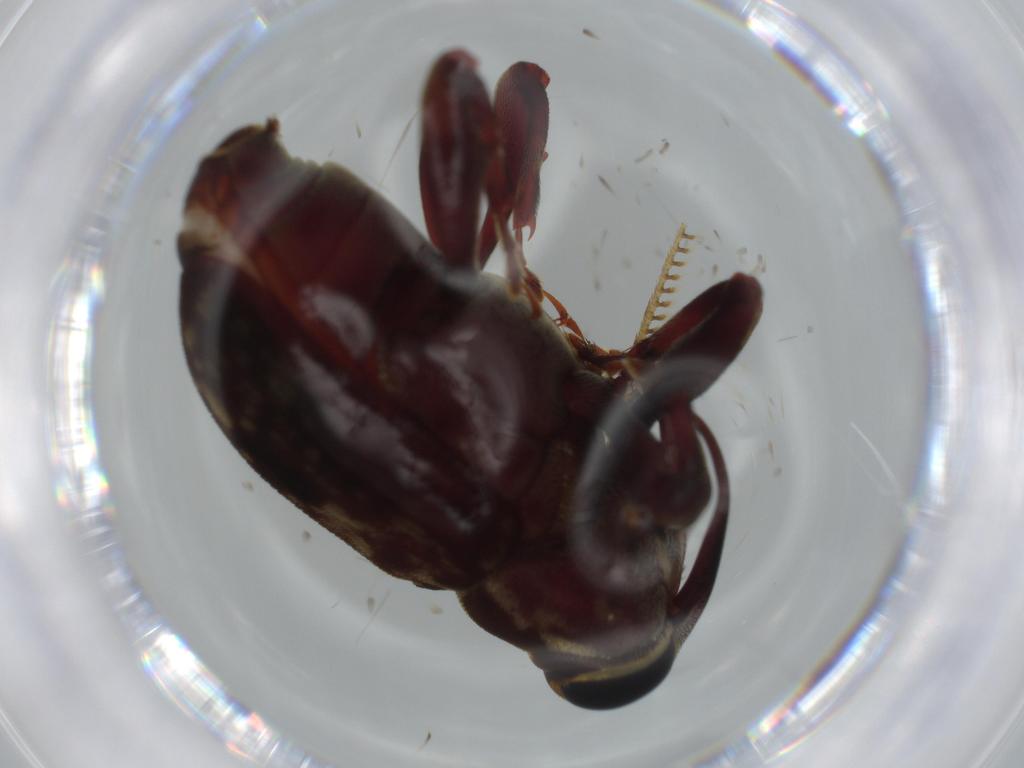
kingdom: Animalia
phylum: Arthropoda
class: Insecta
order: Coleoptera
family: Curculionidae
